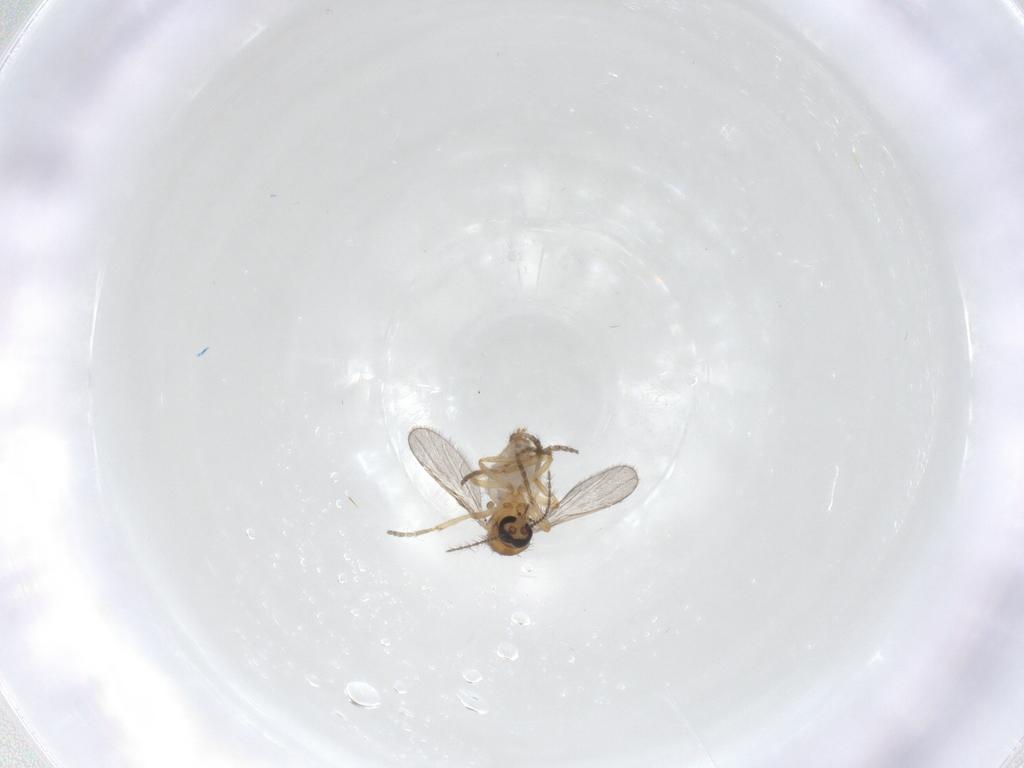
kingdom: Animalia
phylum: Arthropoda
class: Insecta
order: Diptera
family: Ceratopogonidae
